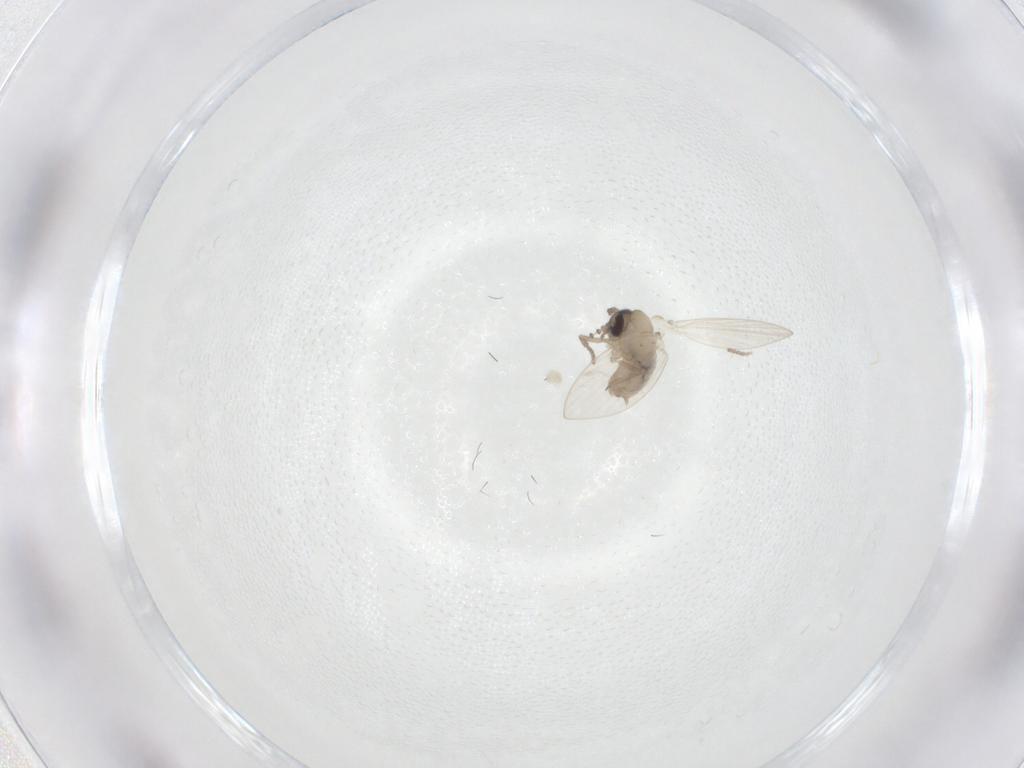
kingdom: Animalia
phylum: Arthropoda
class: Insecta
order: Diptera
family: Psychodidae
